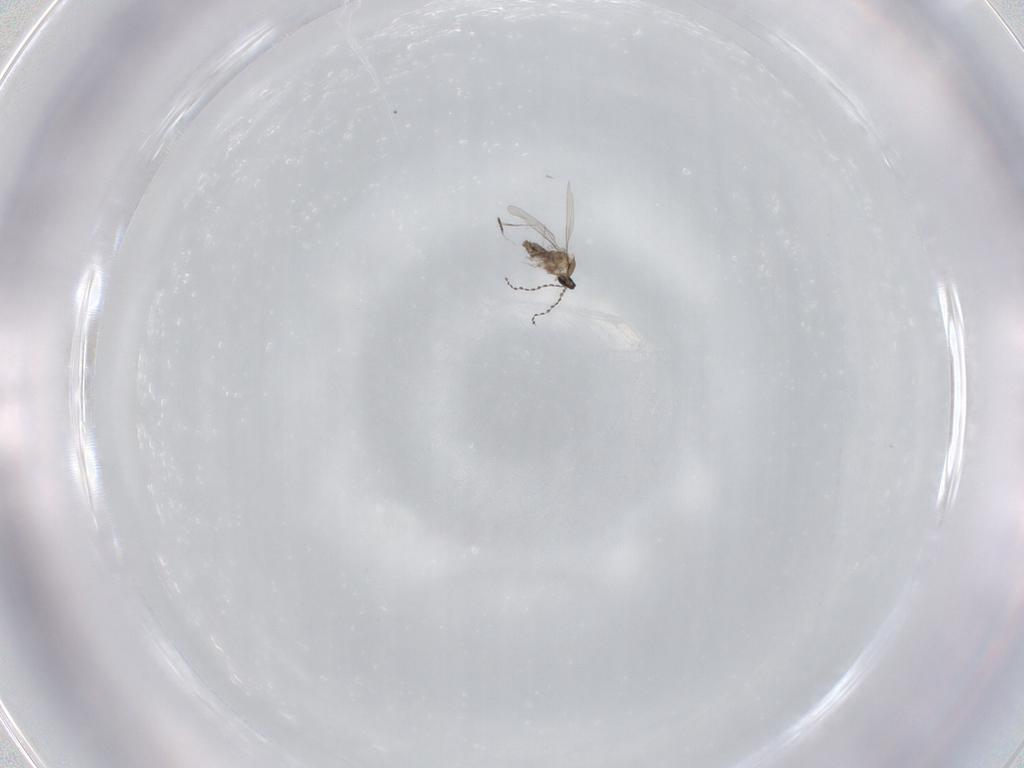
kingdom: Animalia
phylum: Arthropoda
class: Insecta
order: Diptera
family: Cecidomyiidae
